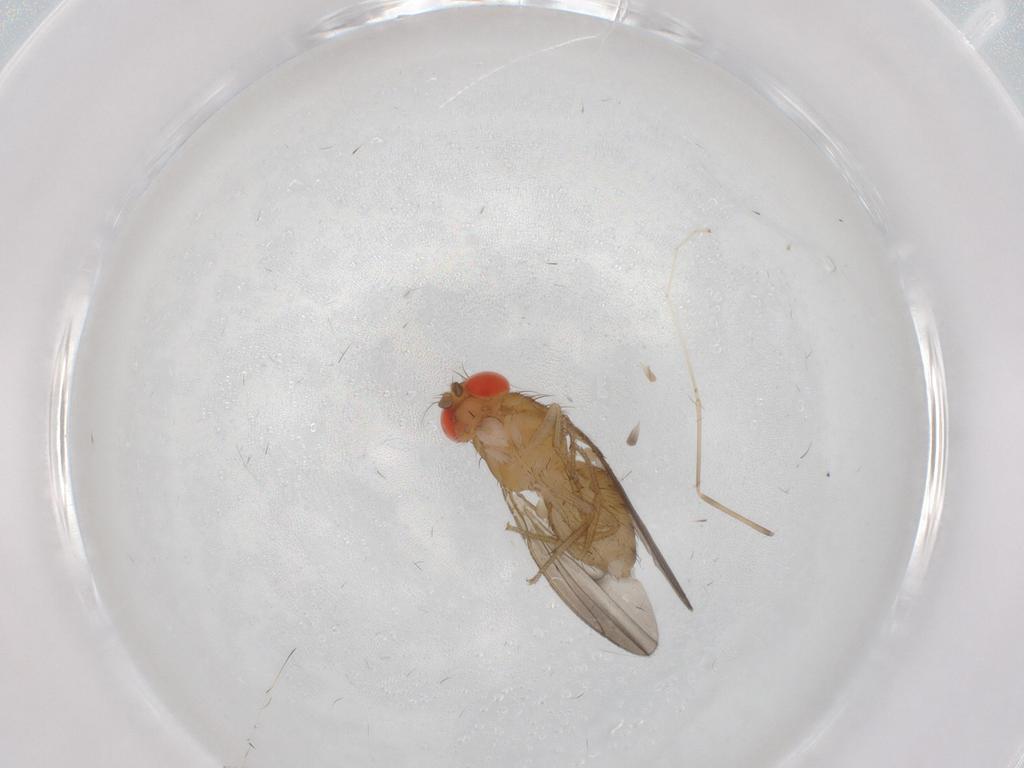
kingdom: Animalia
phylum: Arthropoda
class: Insecta
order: Diptera
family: Drosophilidae
